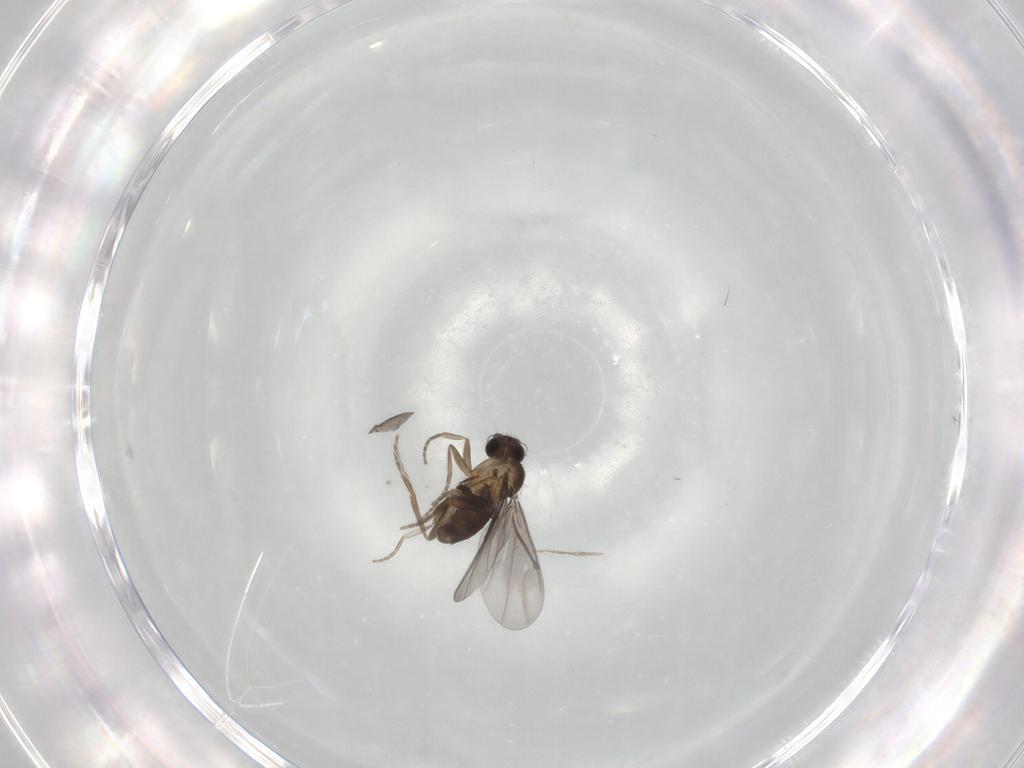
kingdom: Animalia
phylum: Arthropoda
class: Insecta
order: Diptera
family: Phoridae
